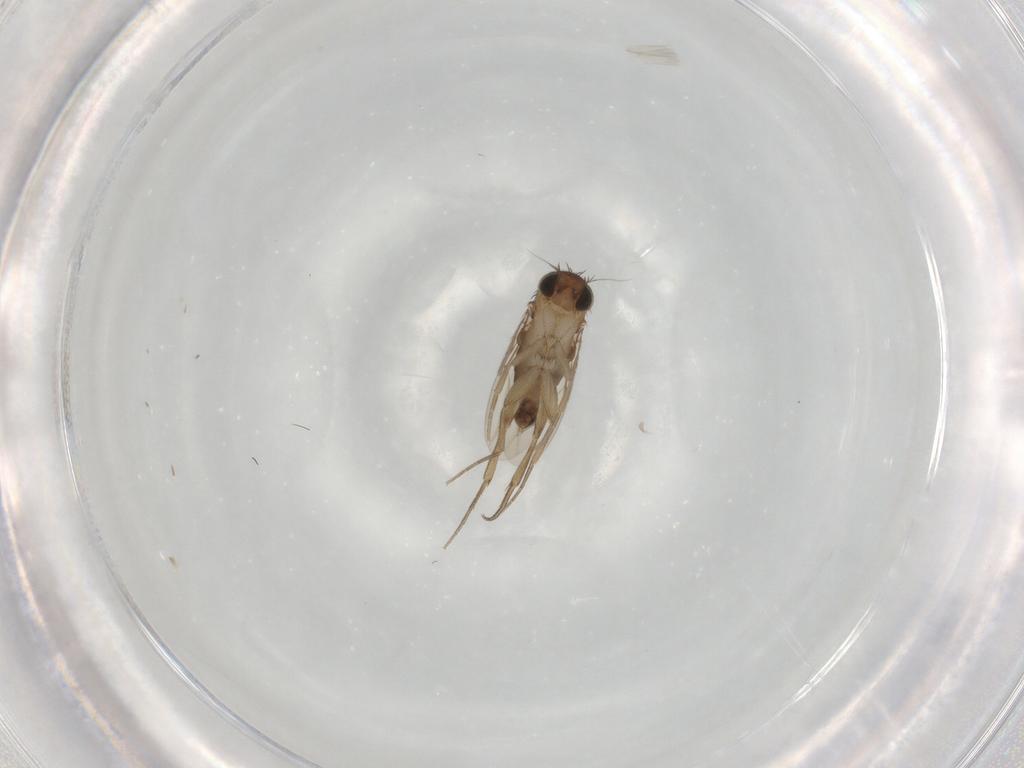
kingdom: Animalia
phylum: Arthropoda
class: Insecta
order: Diptera
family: Phoridae
